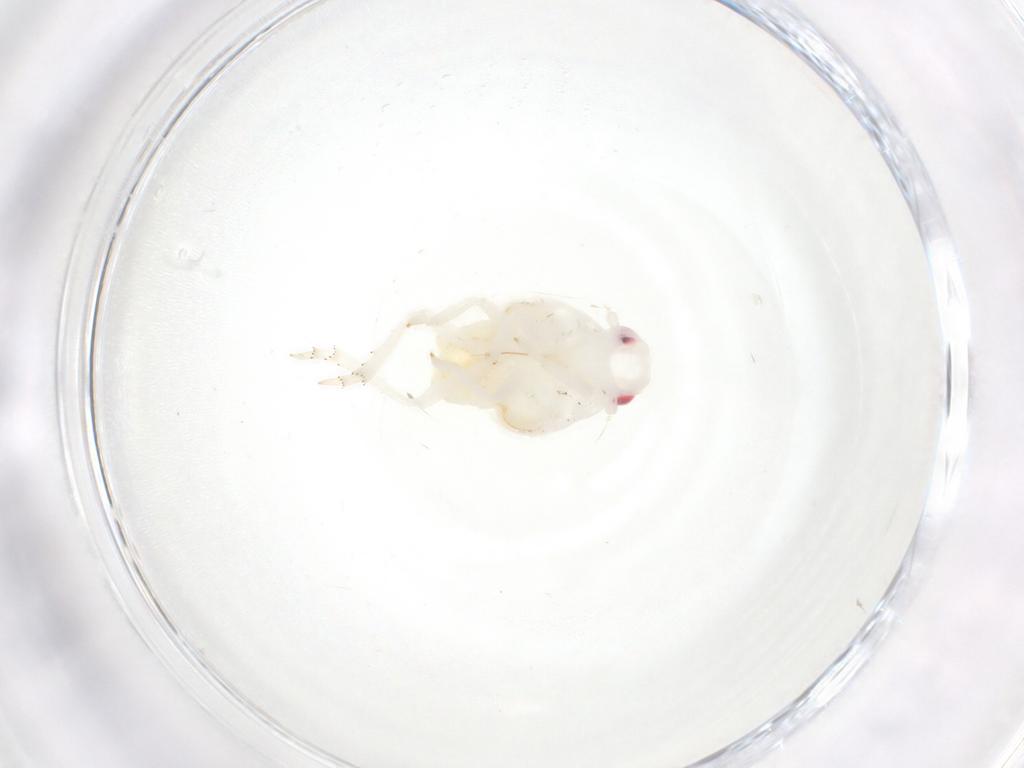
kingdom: Animalia
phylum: Arthropoda
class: Insecta
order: Hemiptera
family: Flatidae
